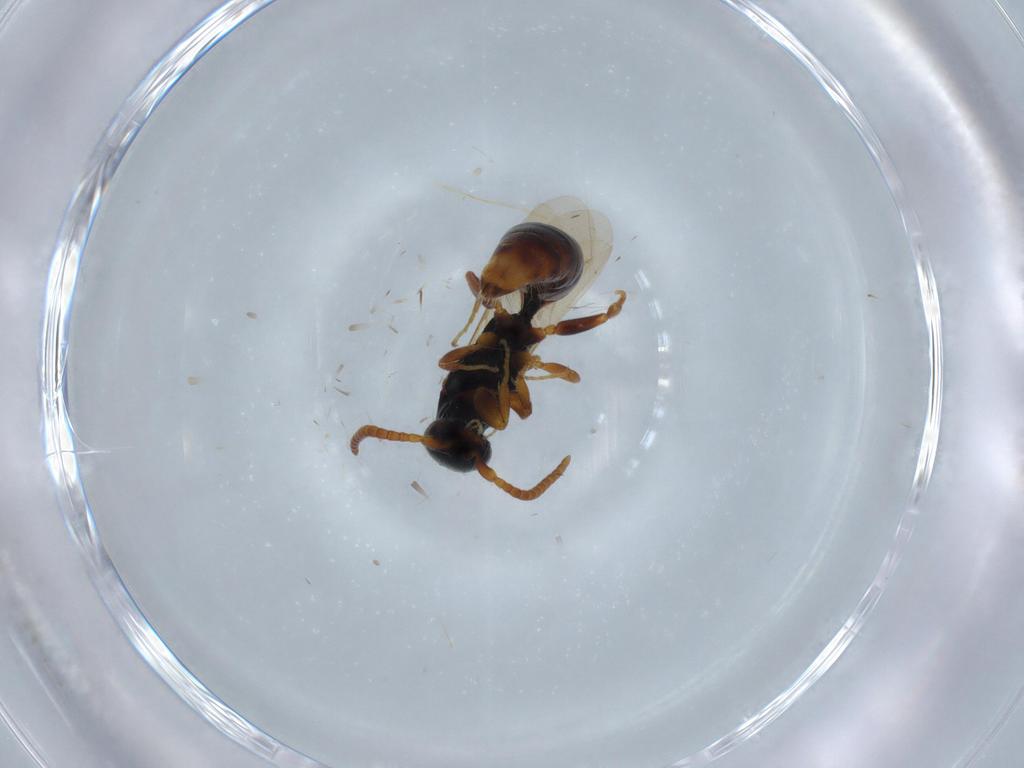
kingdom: Animalia
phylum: Arthropoda
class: Insecta
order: Hymenoptera
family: Bethylidae
